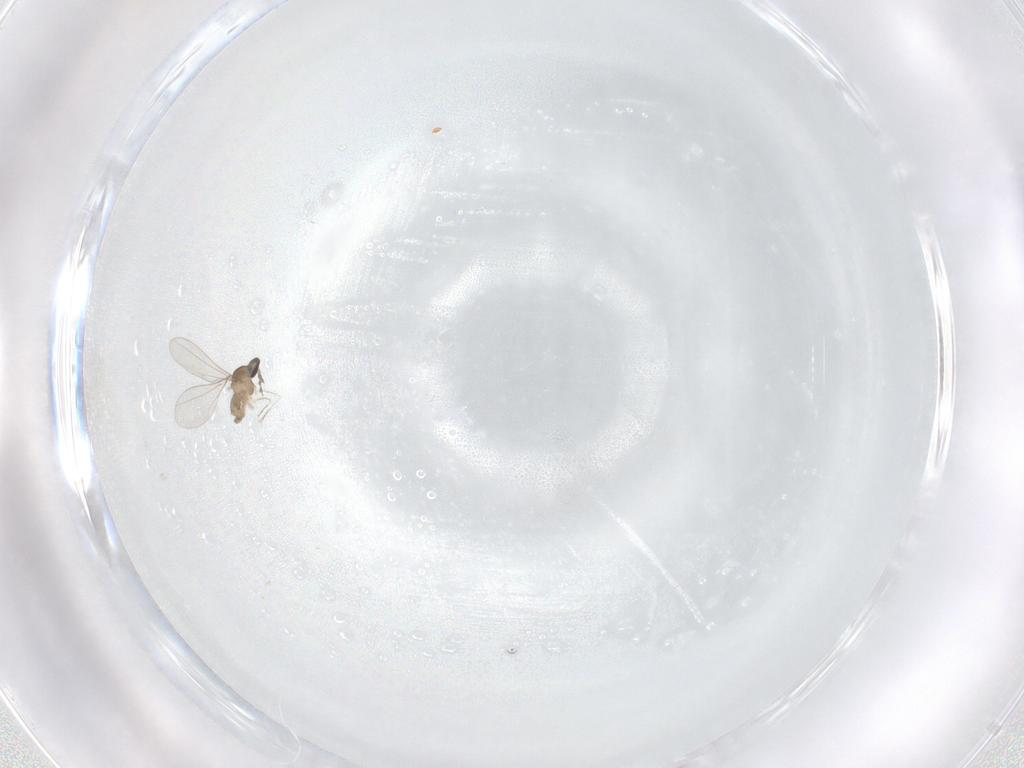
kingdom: Animalia
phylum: Arthropoda
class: Insecta
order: Diptera
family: Cecidomyiidae
